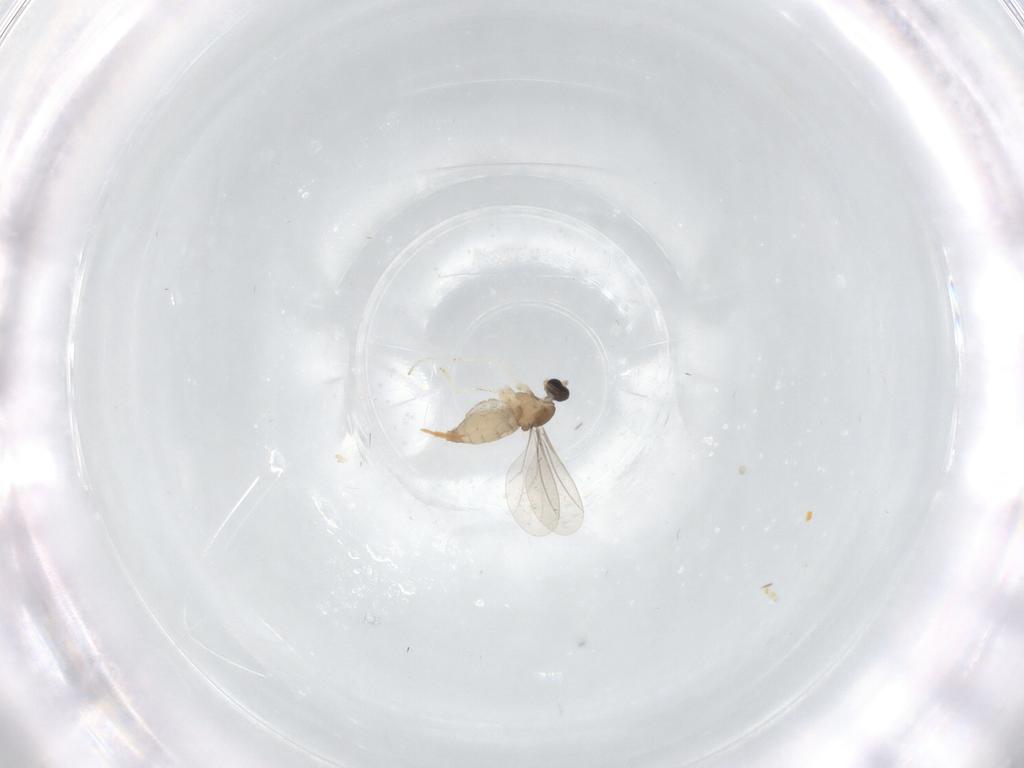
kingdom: Animalia
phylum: Arthropoda
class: Insecta
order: Diptera
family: Cecidomyiidae
